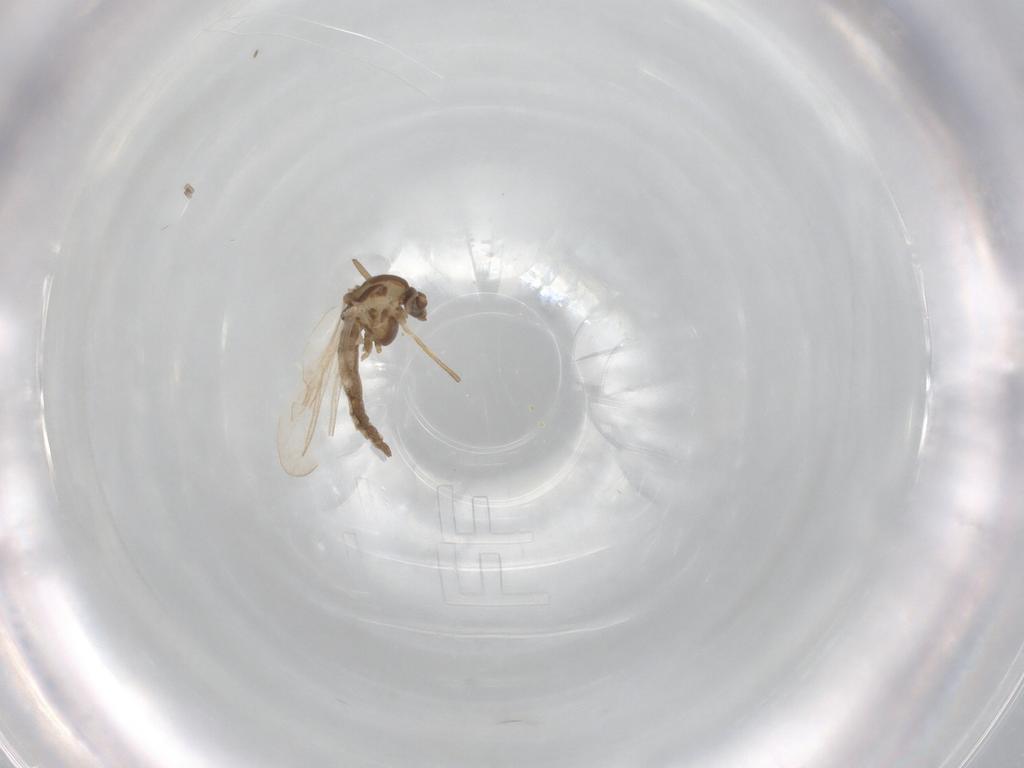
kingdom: Animalia
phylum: Arthropoda
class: Insecta
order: Diptera
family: Chironomidae
